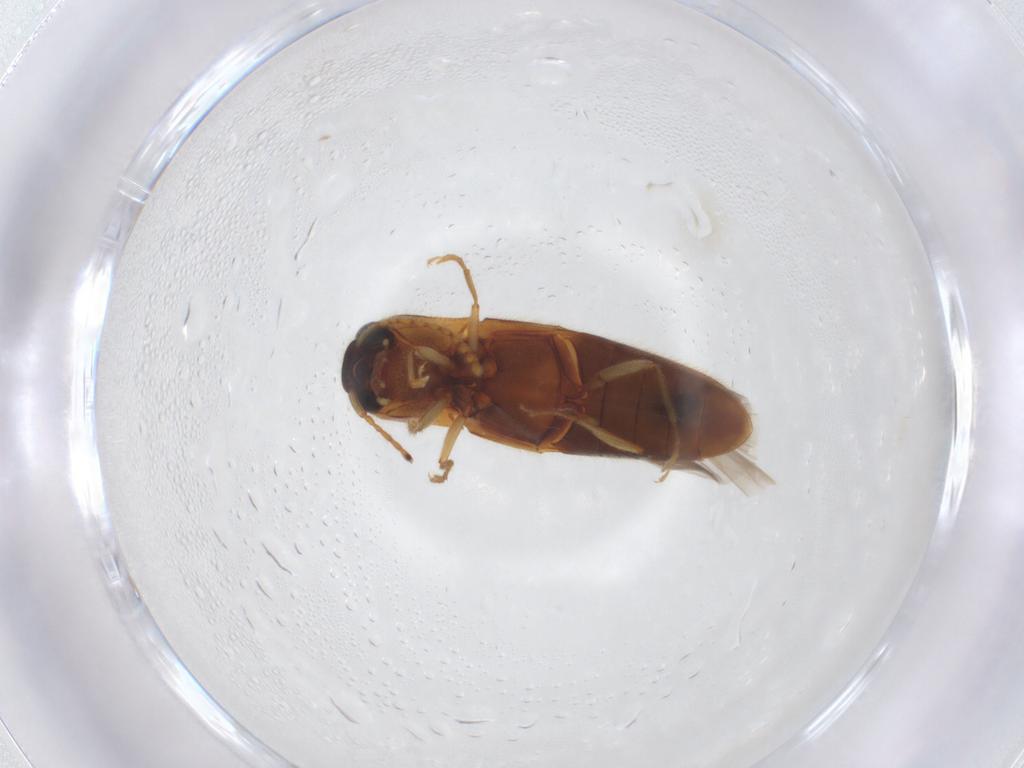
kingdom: Animalia
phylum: Arthropoda
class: Insecta
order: Coleoptera
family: Elateridae
